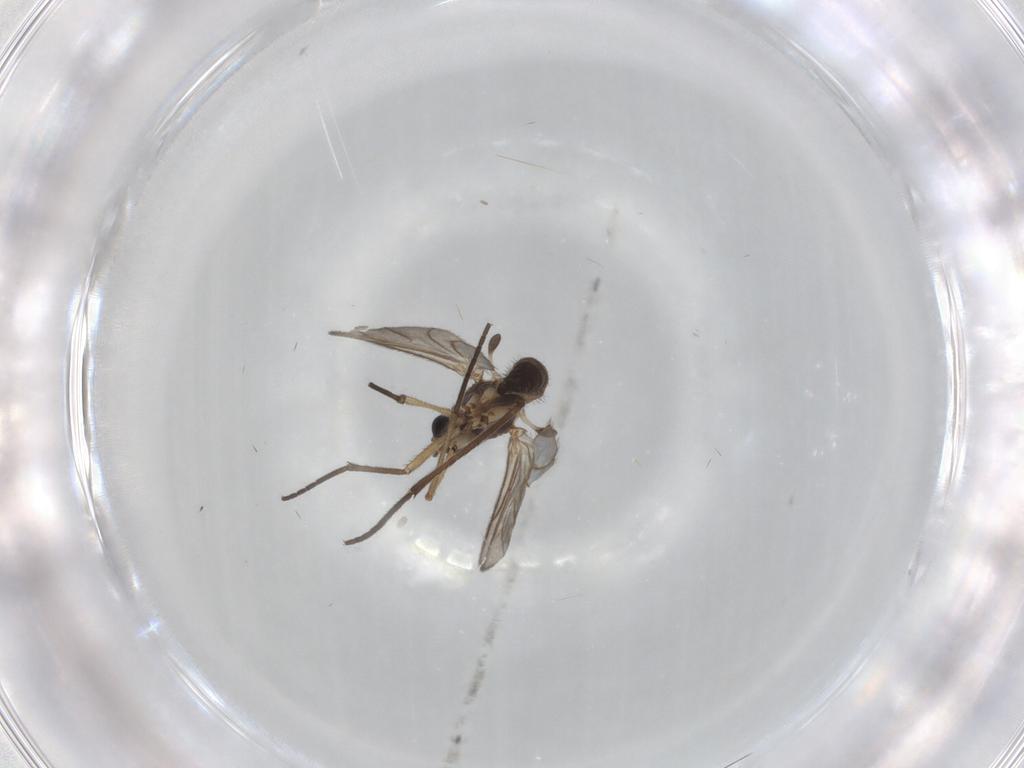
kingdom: Animalia
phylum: Arthropoda
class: Insecta
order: Diptera
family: Sciaridae
